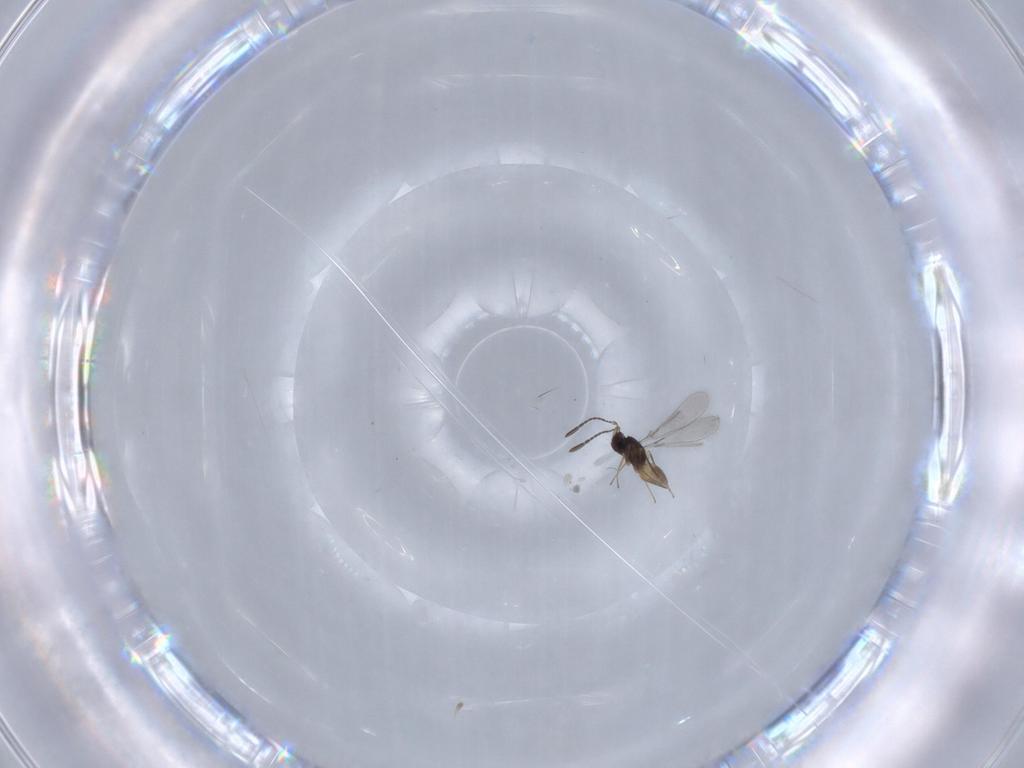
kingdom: Animalia
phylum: Arthropoda
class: Insecta
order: Hymenoptera
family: Mymaridae
